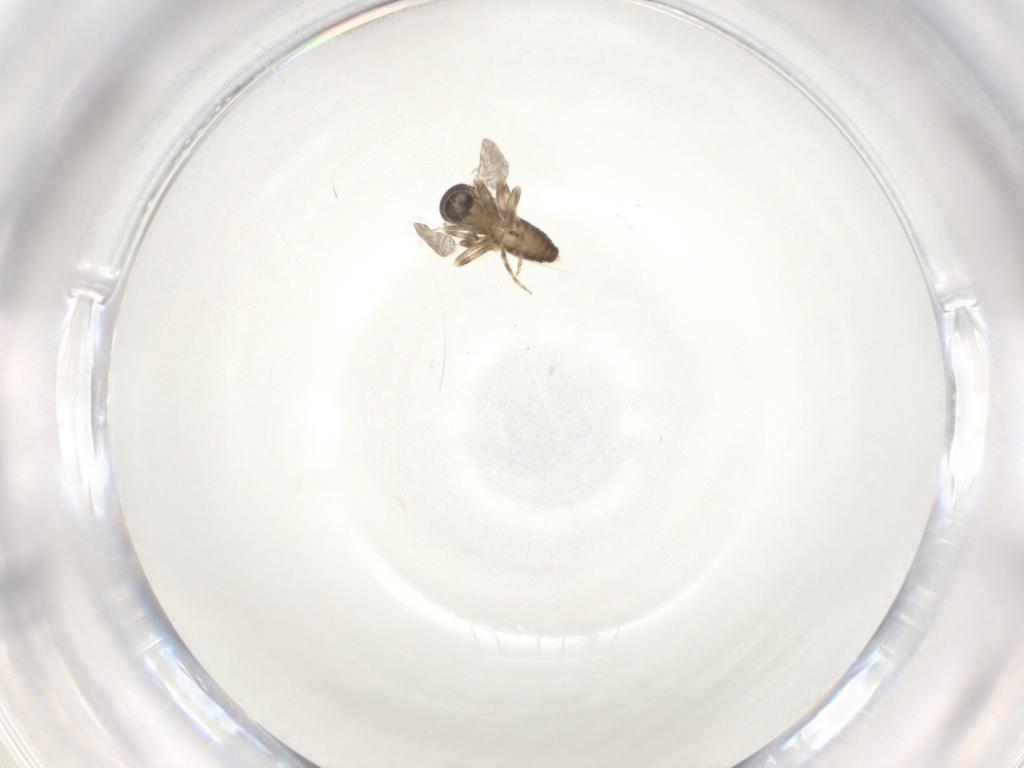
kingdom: Animalia
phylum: Arthropoda
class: Insecta
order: Diptera
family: Ceratopogonidae
